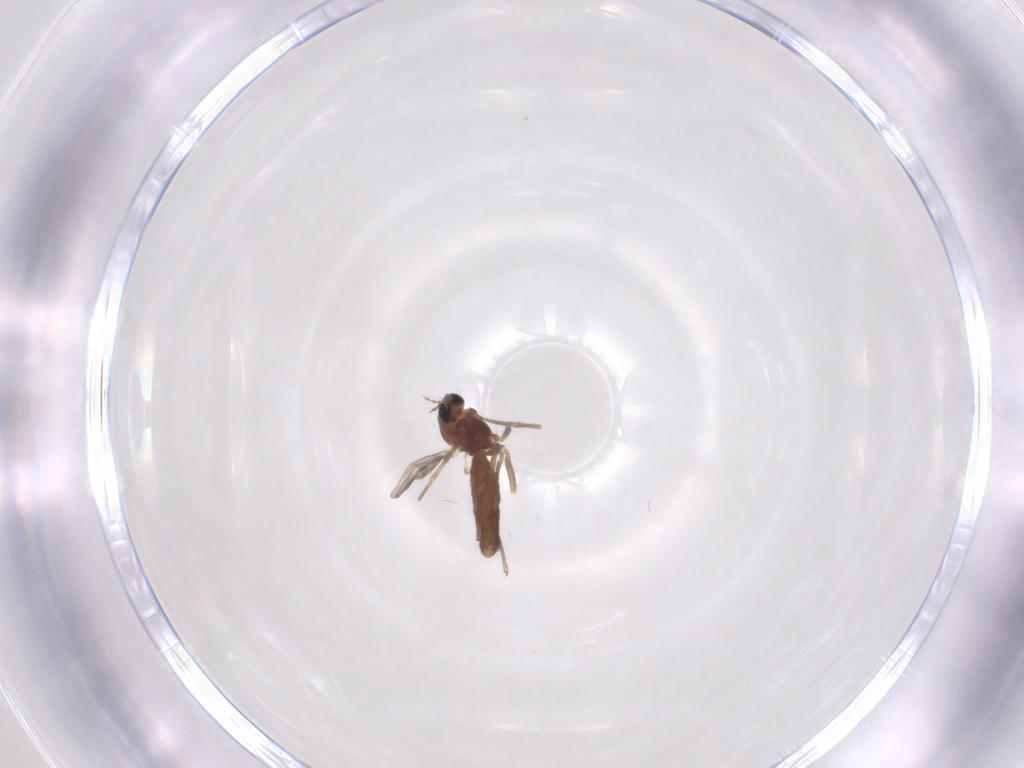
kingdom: Animalia
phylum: Arthropoda
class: Insecta
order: Diptera
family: Chironomidae
